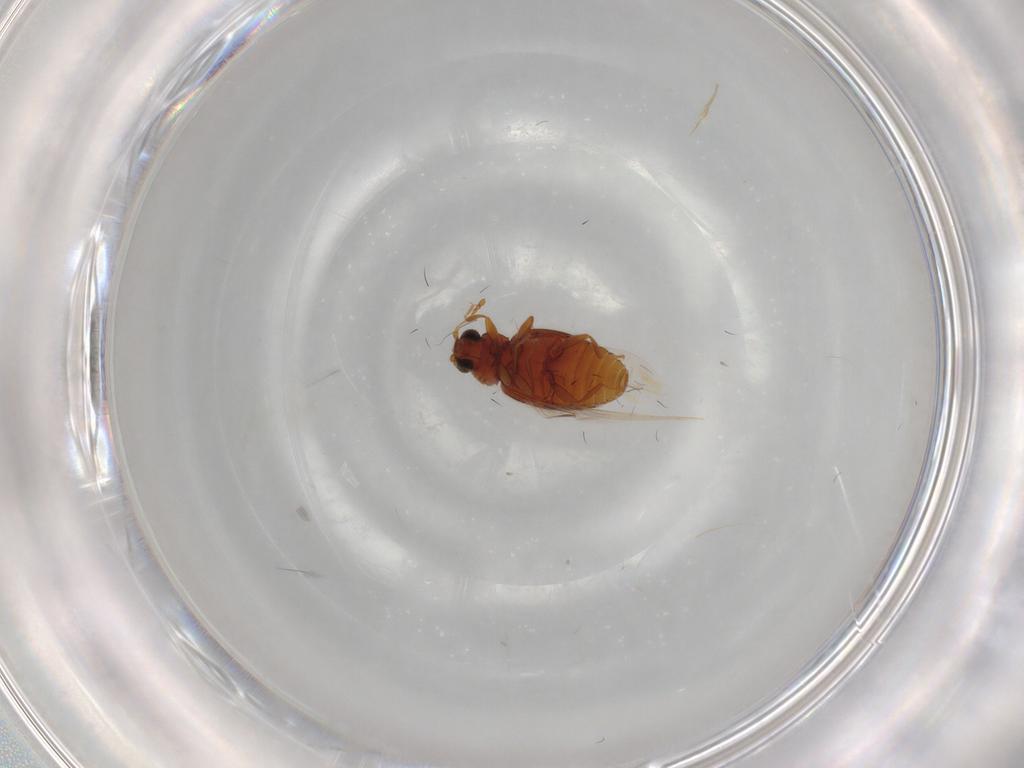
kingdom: Animalia
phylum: Arthropoda
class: Insecta
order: Coleoptera
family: Latridiidae
